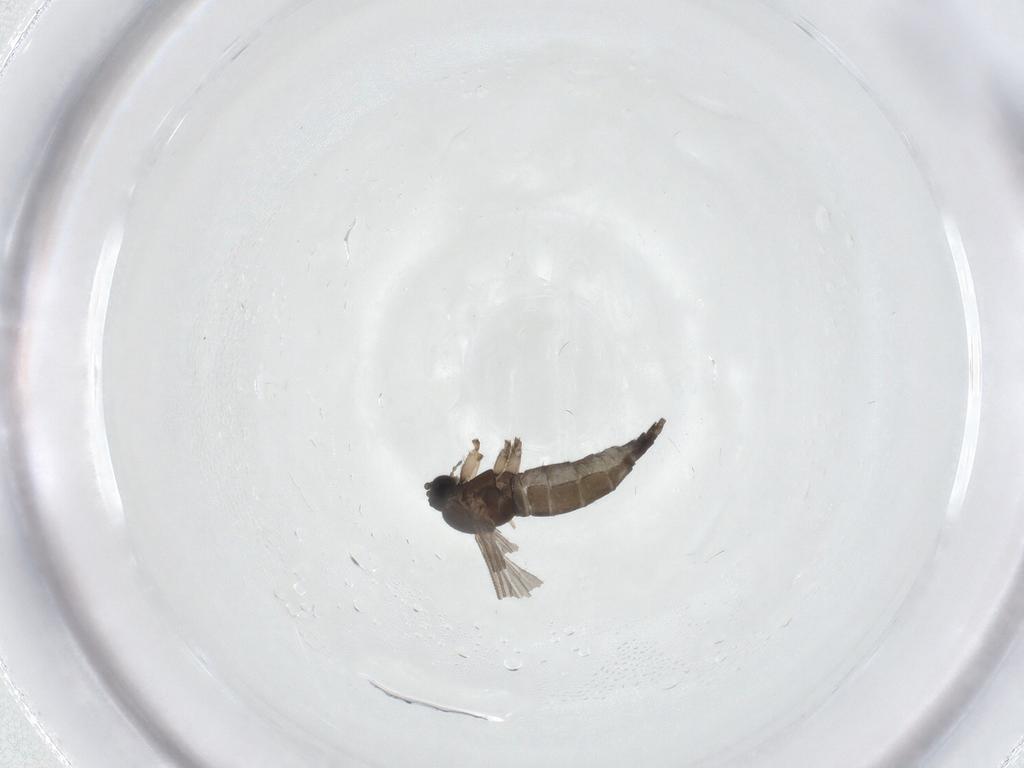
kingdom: Animalia
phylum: Arthropoda
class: Insecta
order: Diptera
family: Sciaridae
